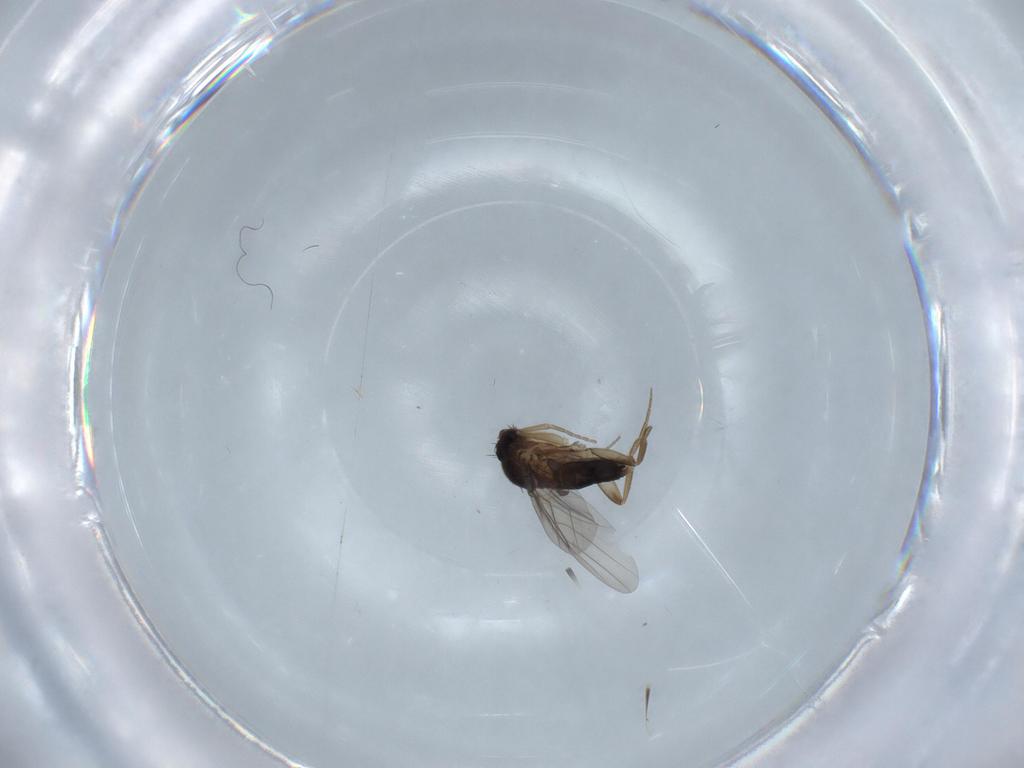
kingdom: Animalia
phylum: Arthropoda
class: Insecta
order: Diptera
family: Phoridae
